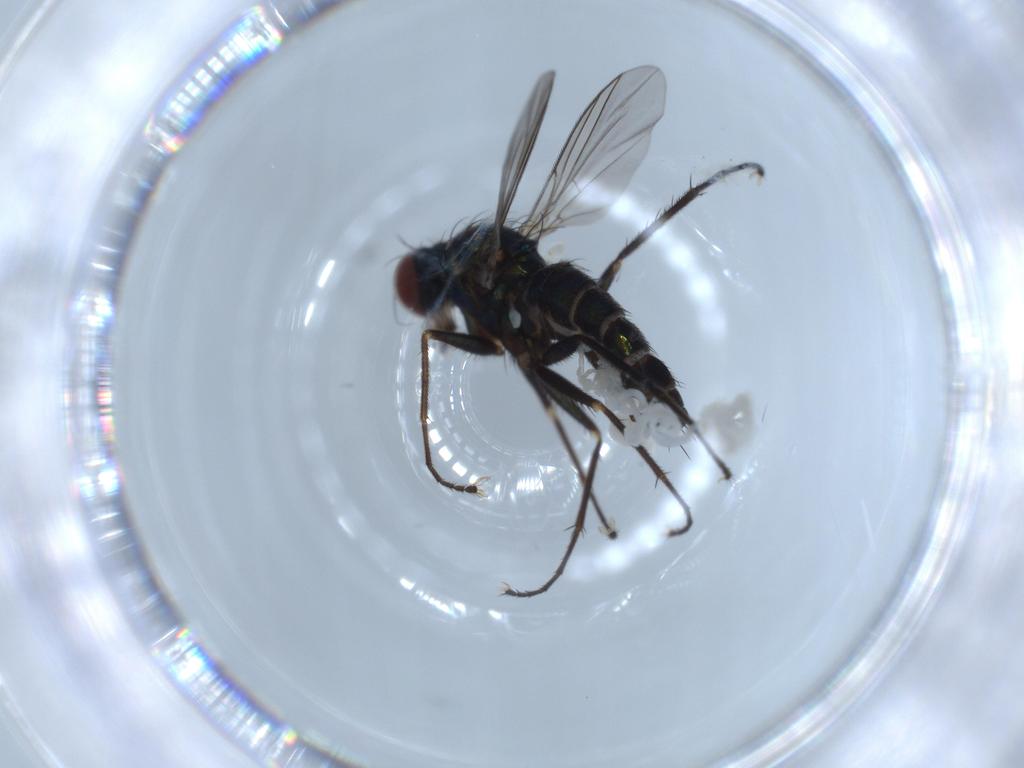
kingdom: Animalia
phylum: Arthropoda
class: Insecta
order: Diptera
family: Dolichopodidae
